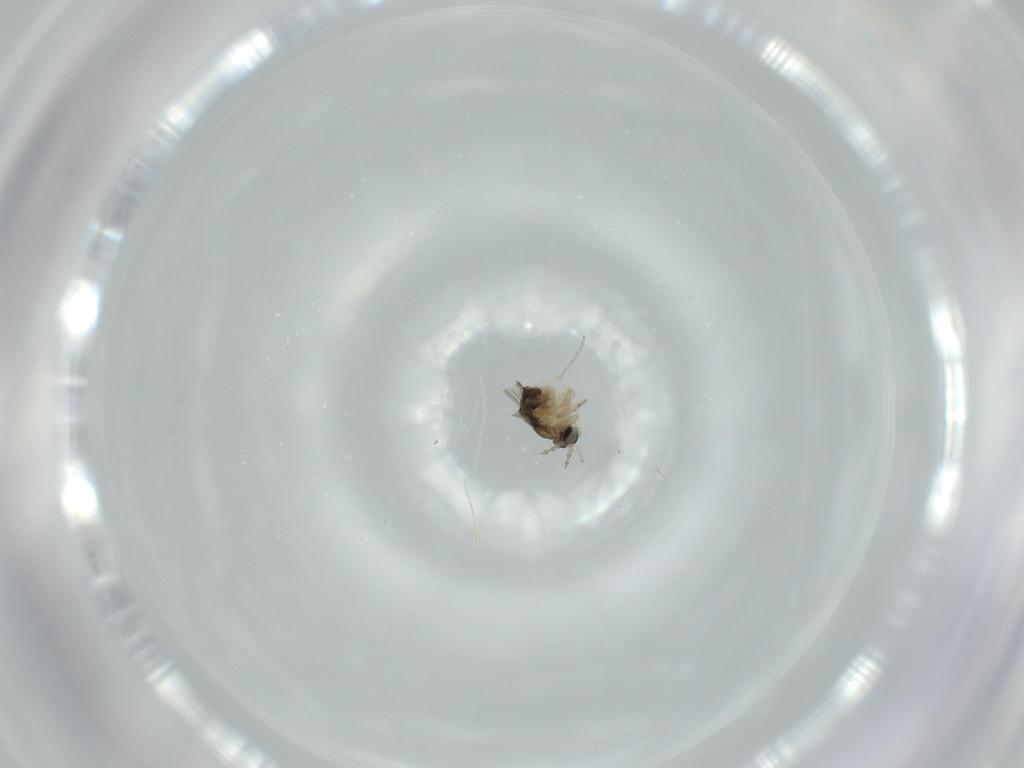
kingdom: Animalia
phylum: Arthropoda
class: Insecta
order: Diptera
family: Cecidomyiidae
